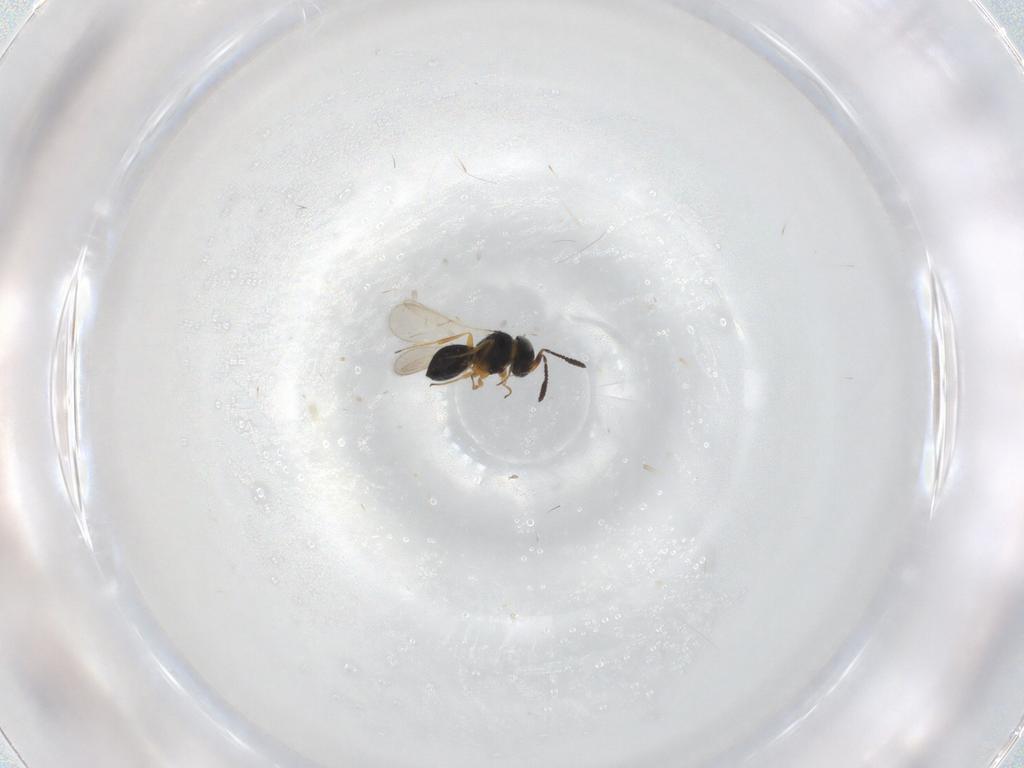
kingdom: Animalia
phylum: Arthropoda
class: Insecta
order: Hymenoptera
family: Scelionidae
